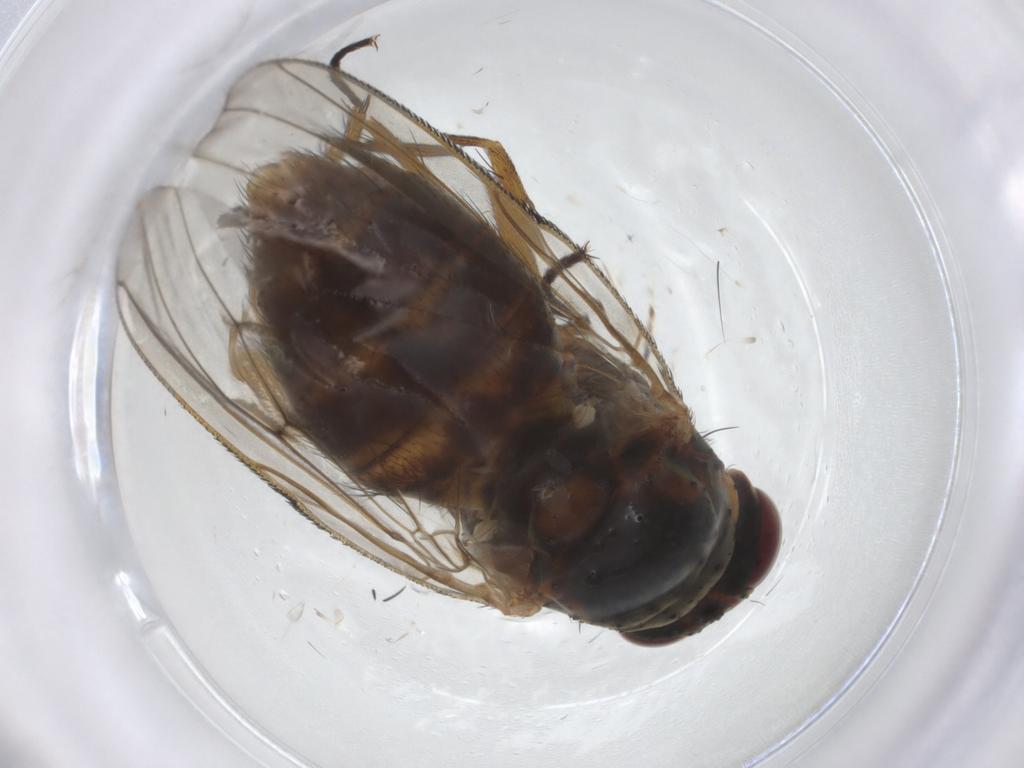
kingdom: Animalia
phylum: Arthropoda
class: Insecta
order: Diptera
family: Anthomyiidae
